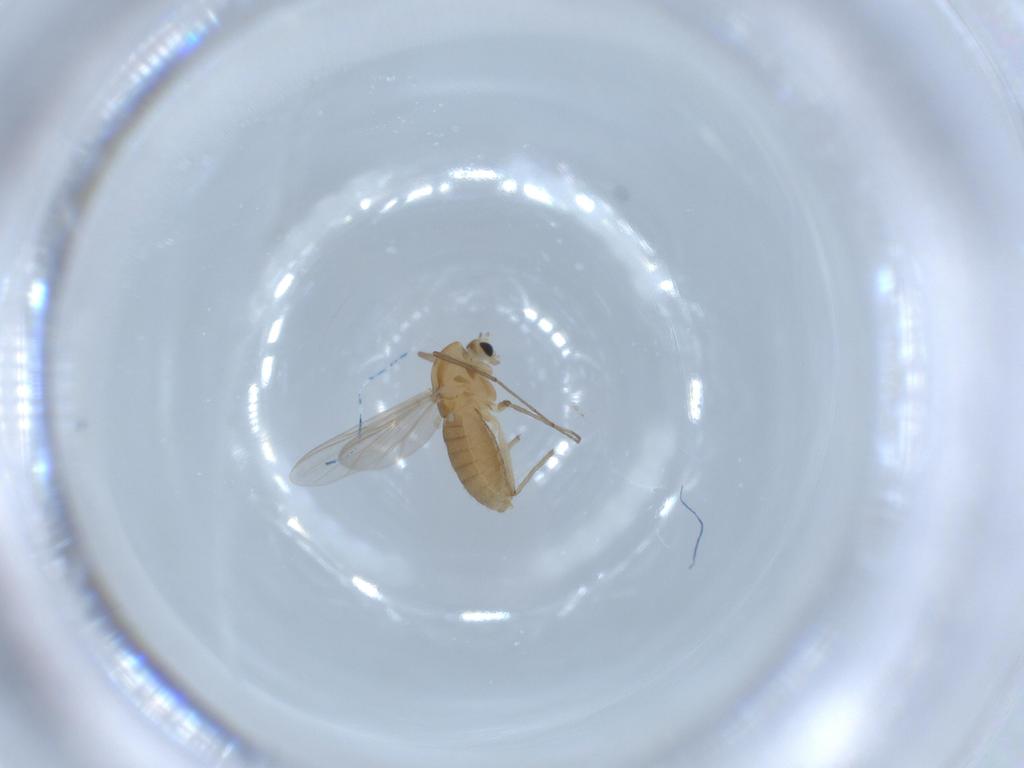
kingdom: Animalia
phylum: Arthropoda
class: Insecta
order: Diptera
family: Chironomidae
